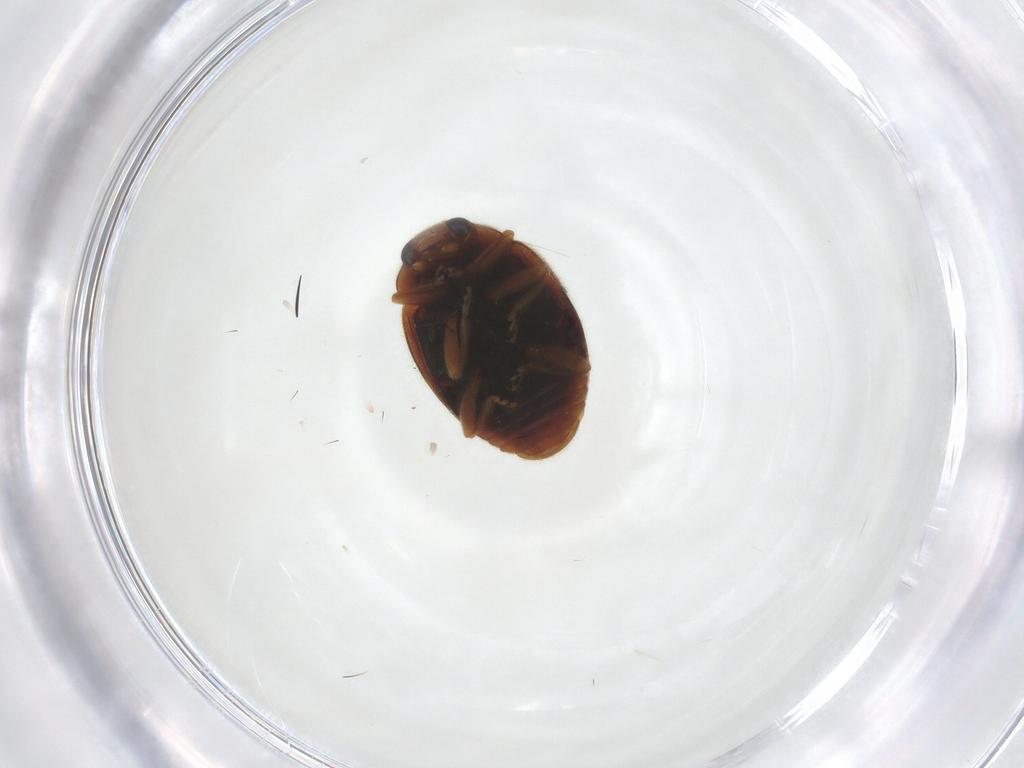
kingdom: Animalia
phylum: Arthropoda
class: Insecta
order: Coleoptera
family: Coccinellidae
